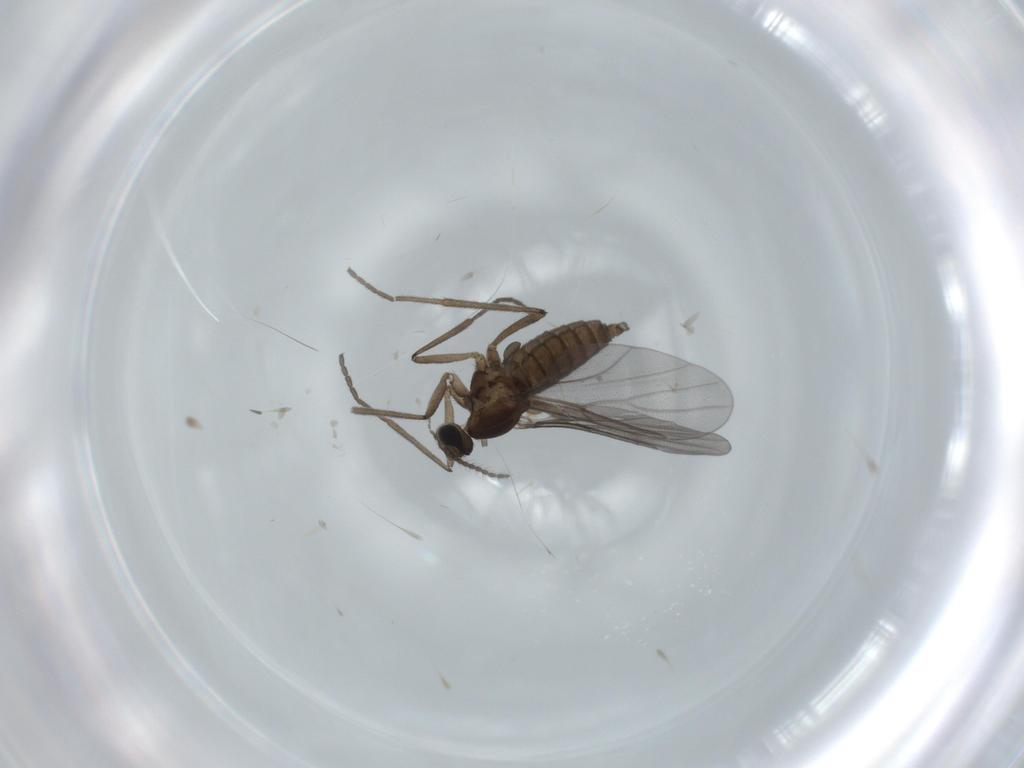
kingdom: Animalia
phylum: Arthropoda
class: Insecta
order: Diptera
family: Cecidomyiidae
